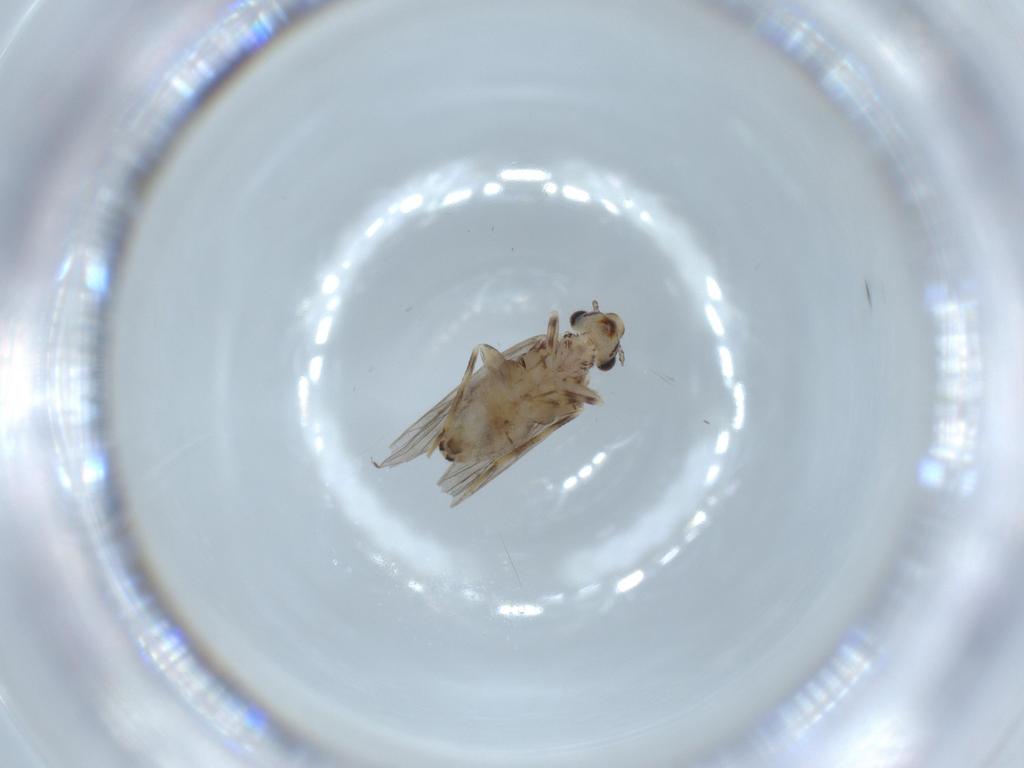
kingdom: Animalia
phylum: Arthropoda
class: Insecta
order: Psocodea
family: Lepidopsocidae
